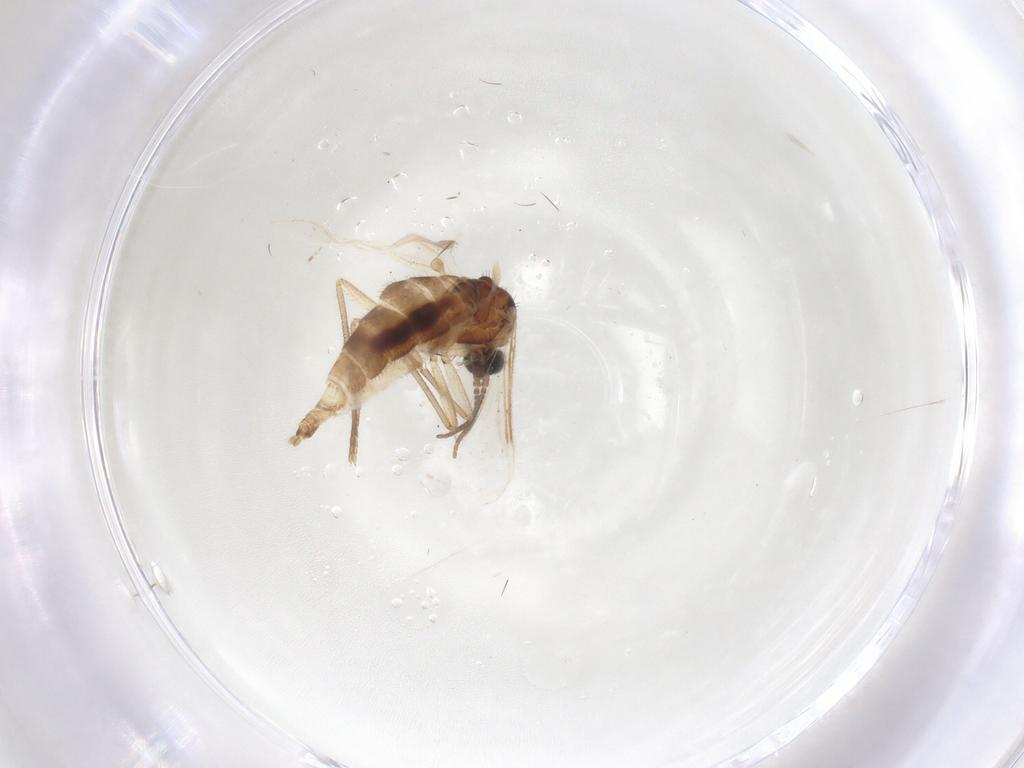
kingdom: Animalia
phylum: Arthropoda
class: Insecta
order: Diptera
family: Sciaridae
